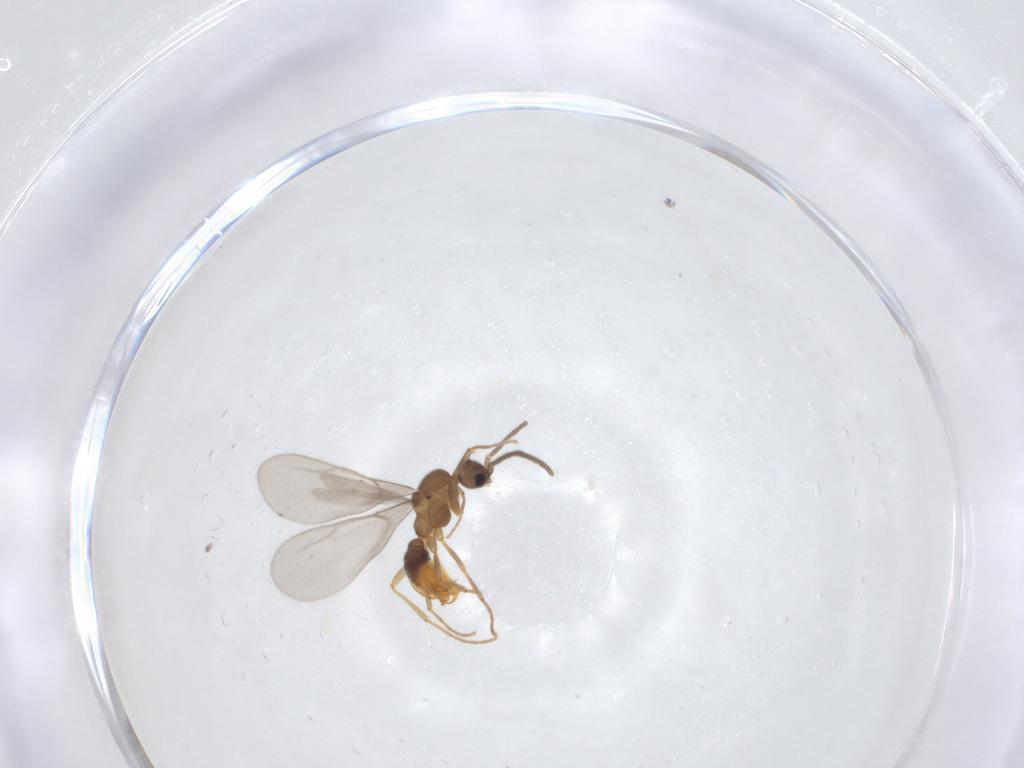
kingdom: Animalia
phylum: Arthropoda
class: Insecta
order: Hymenoptera
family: Formicidae
